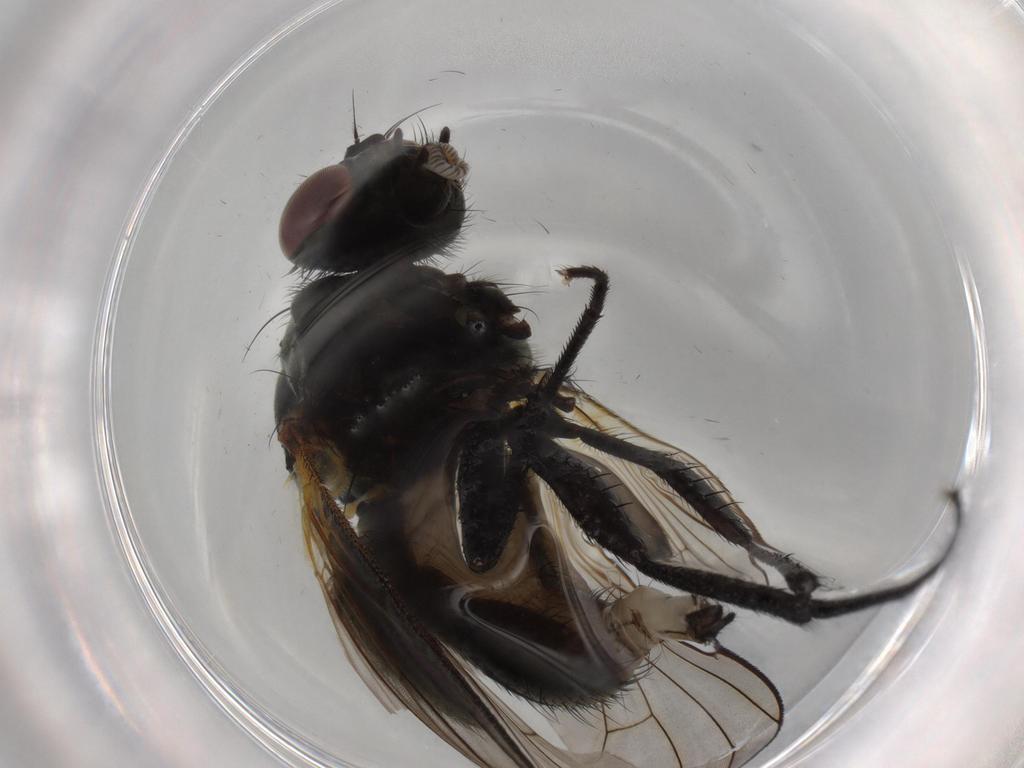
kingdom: Animalia
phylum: Arthropoda
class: Insecta
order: Diptera
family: Muscidae
